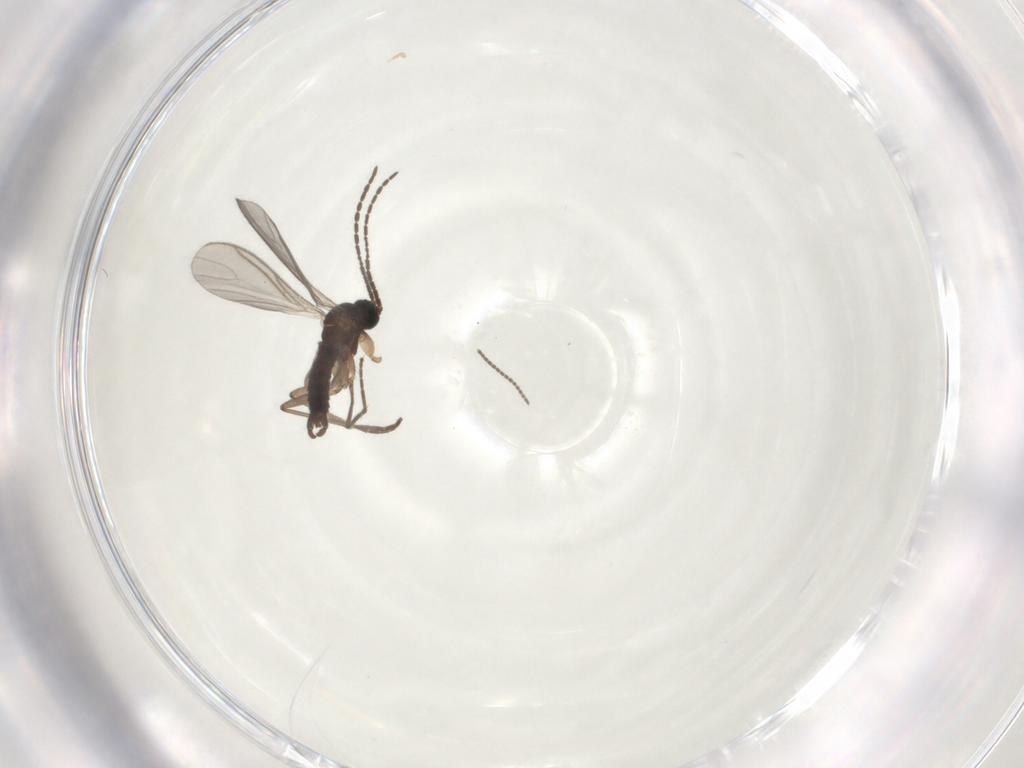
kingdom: Animalia
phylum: Arthropoda
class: Insecta
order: Diptera
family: Sciaridae
